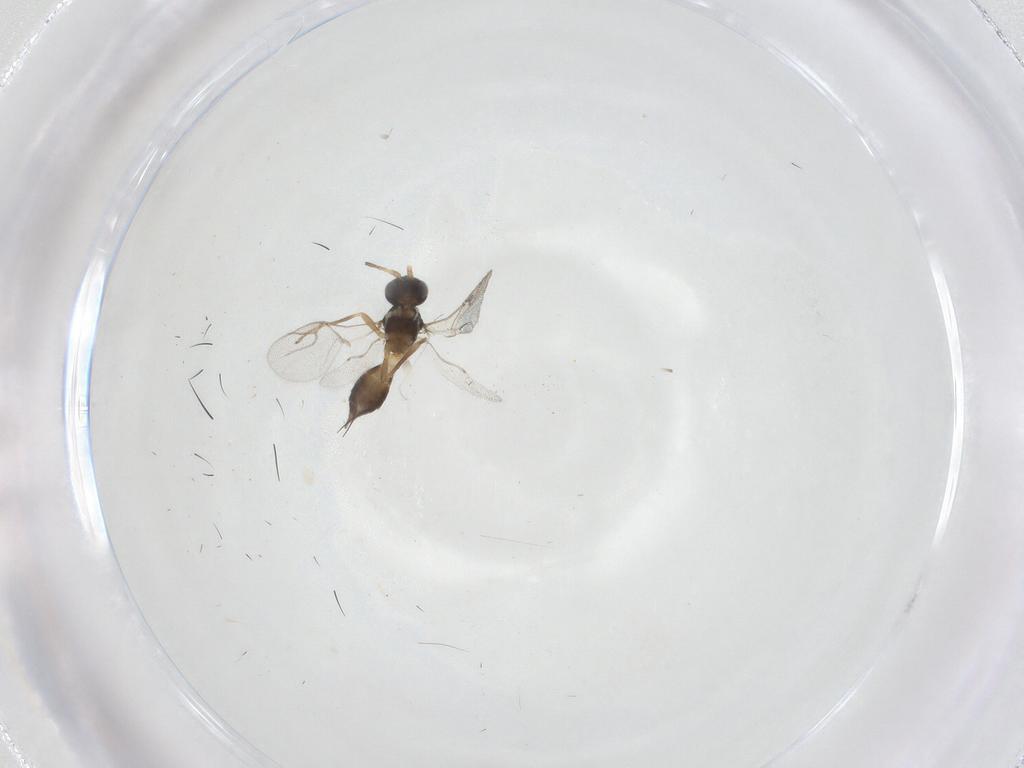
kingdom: Animalia
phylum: Arthropoda
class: Insecta
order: Hymenoptera
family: Braconidae
